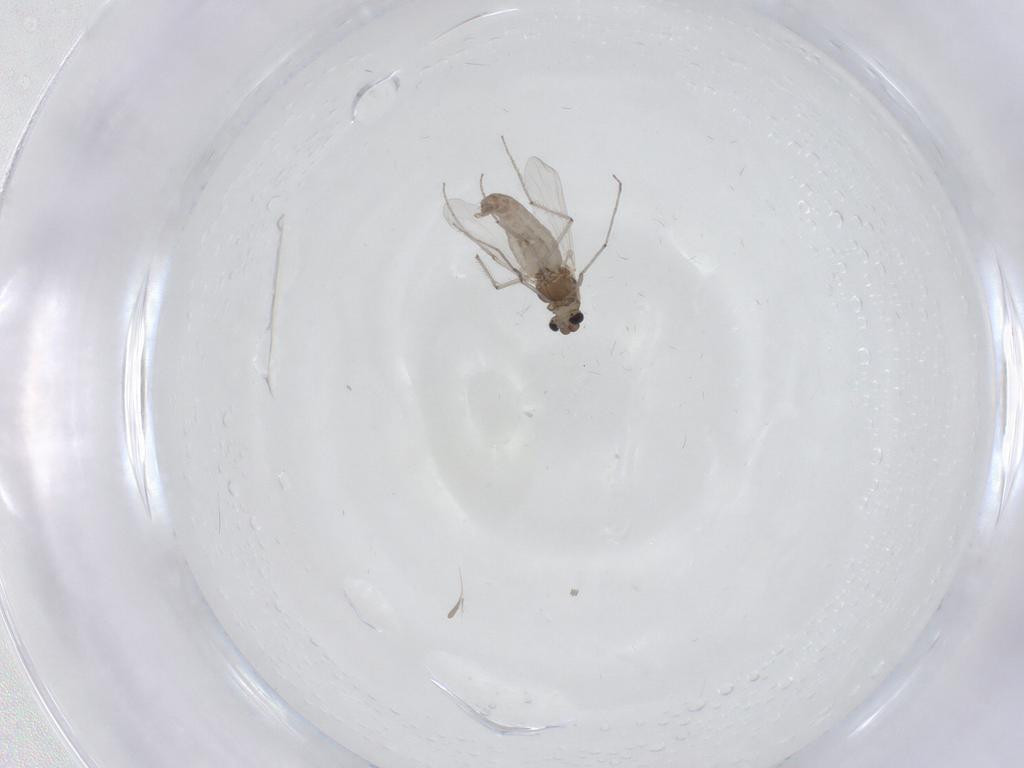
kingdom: Animalia
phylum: Arthropoda
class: Insecta
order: Diptera
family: Chironomidae
